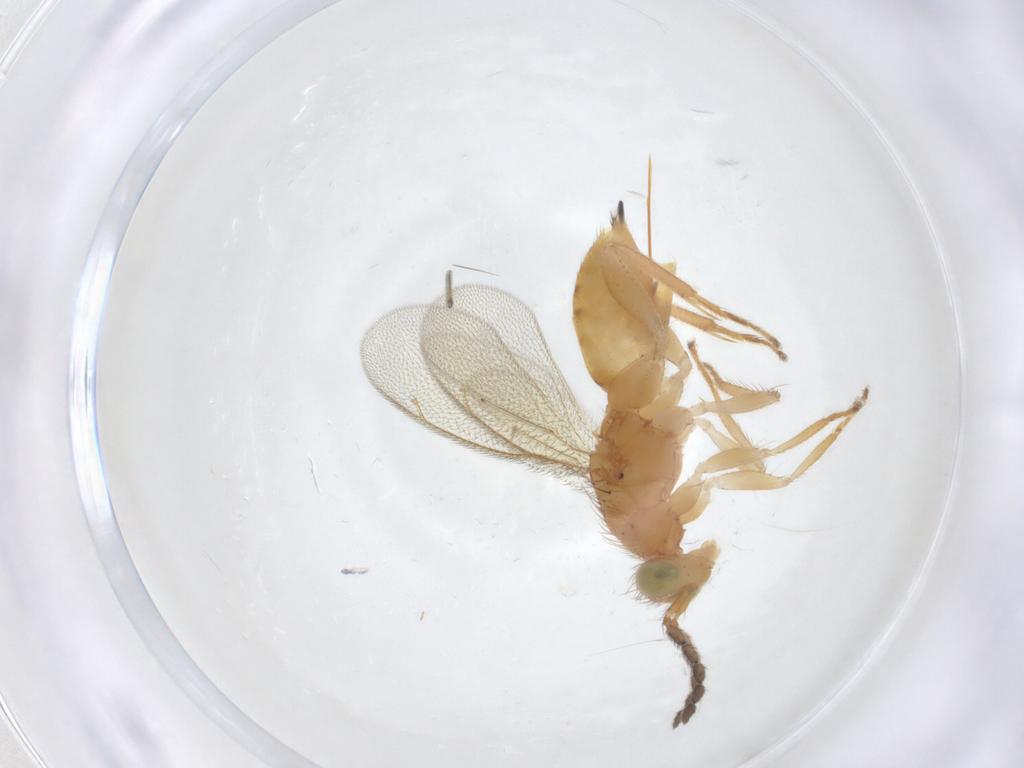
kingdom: Animalia
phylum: Arthropoda
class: Insecta
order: Hymenoptera
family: Eulophidae
